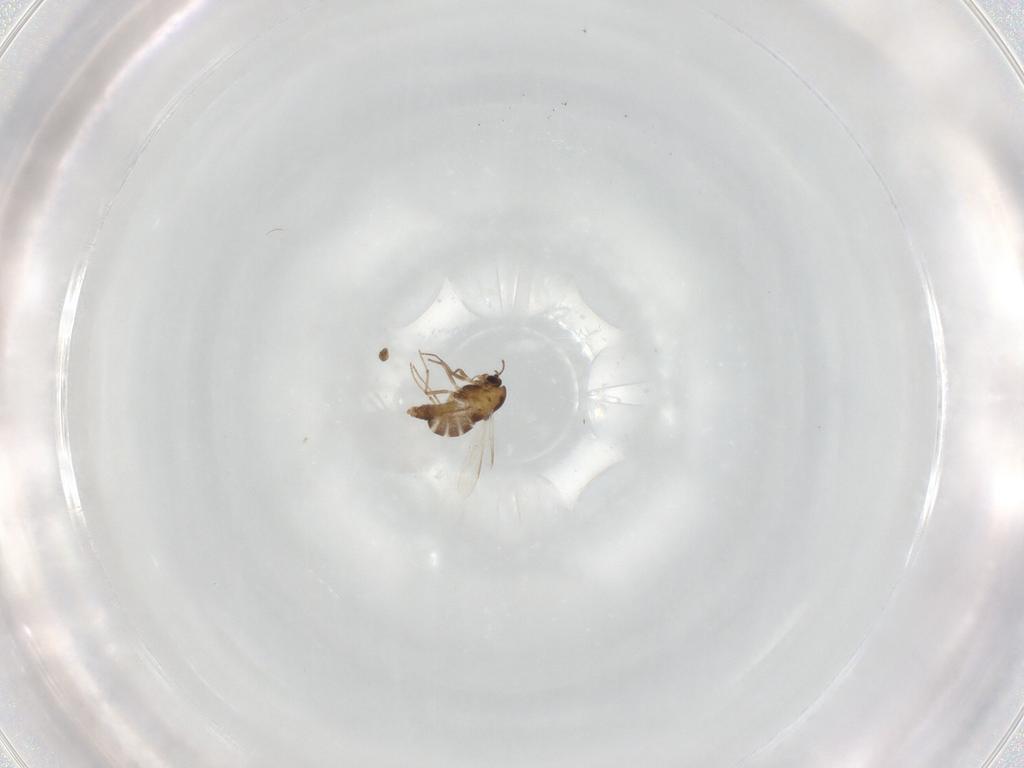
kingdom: Animalia
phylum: Arthropoda
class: Insecta
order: Diptera
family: Chironomidae
